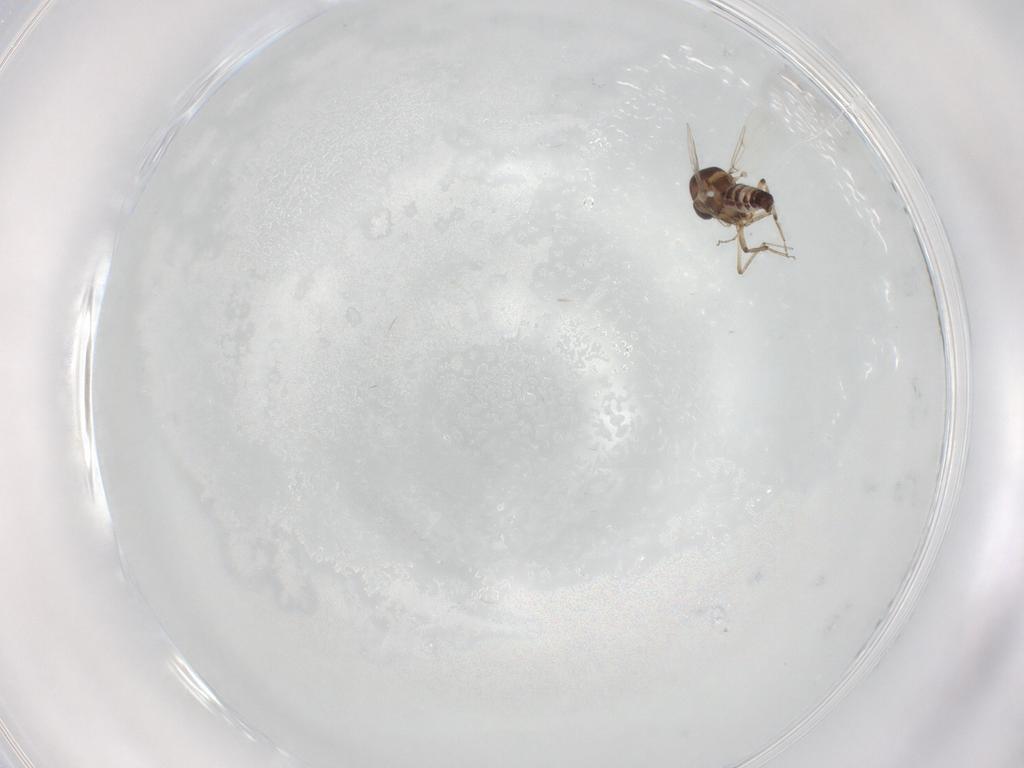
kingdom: Animalia
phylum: Arthropoda
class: Insecta
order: Diptera
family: Ceratopogonidae
